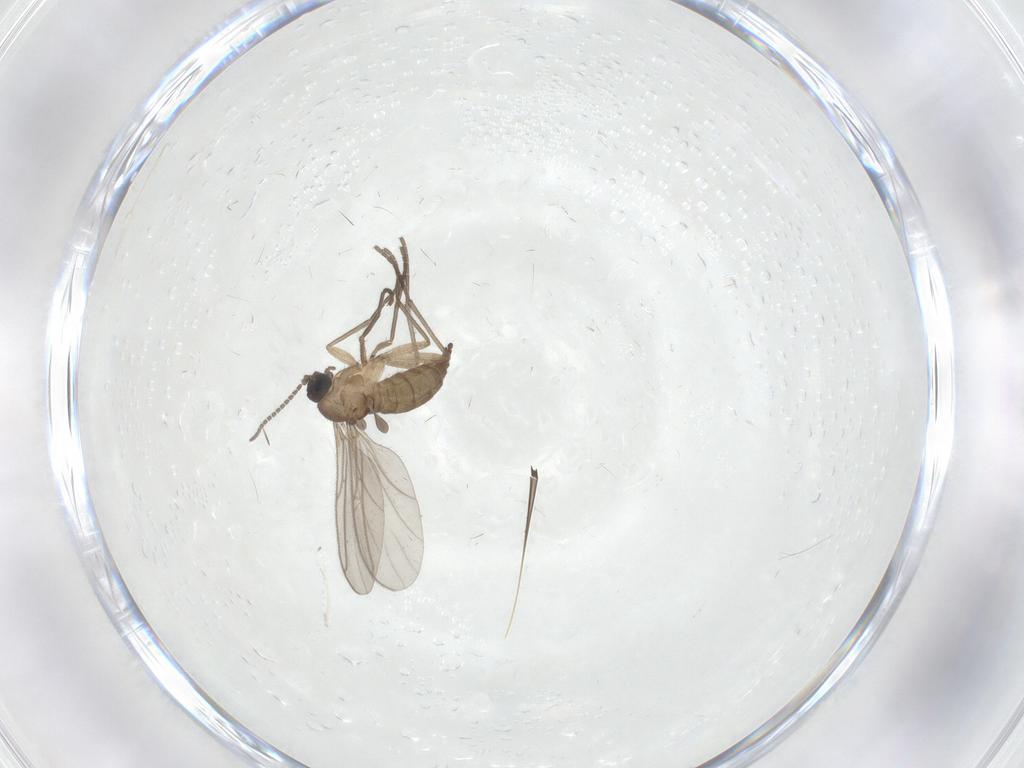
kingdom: Animalia
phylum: Arthropoda
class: Insecta
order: Diptera
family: Sciaridae
